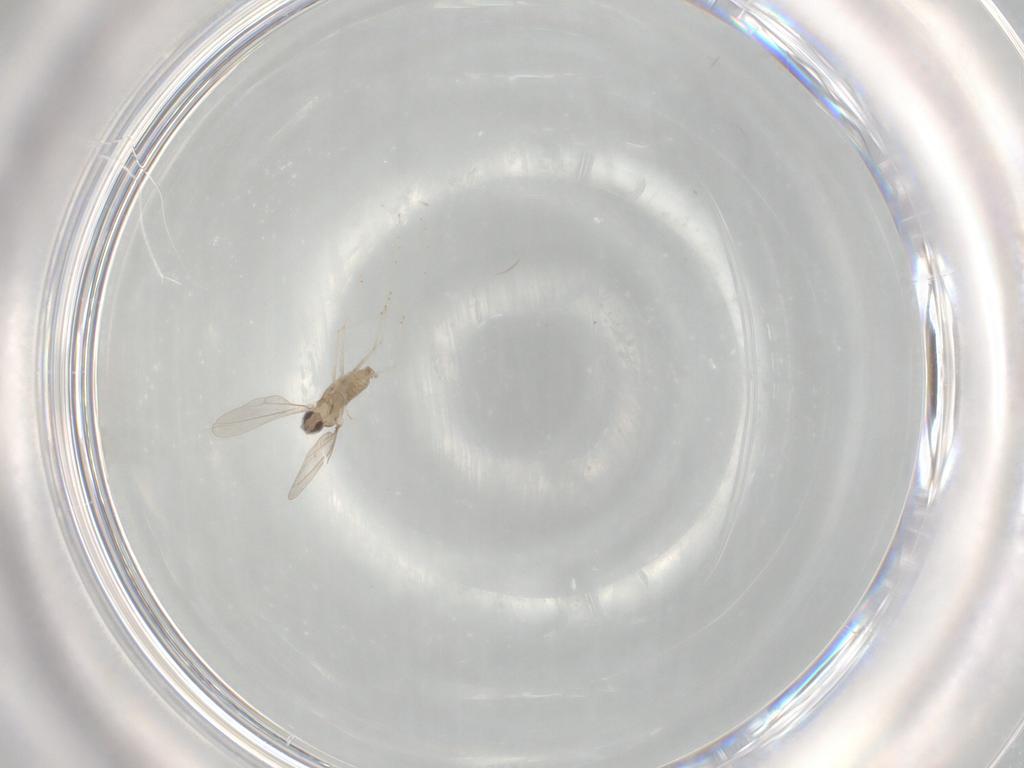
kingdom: Animalia
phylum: Arthropoda
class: Insecta
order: Diptera
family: Cecidomyiidae
